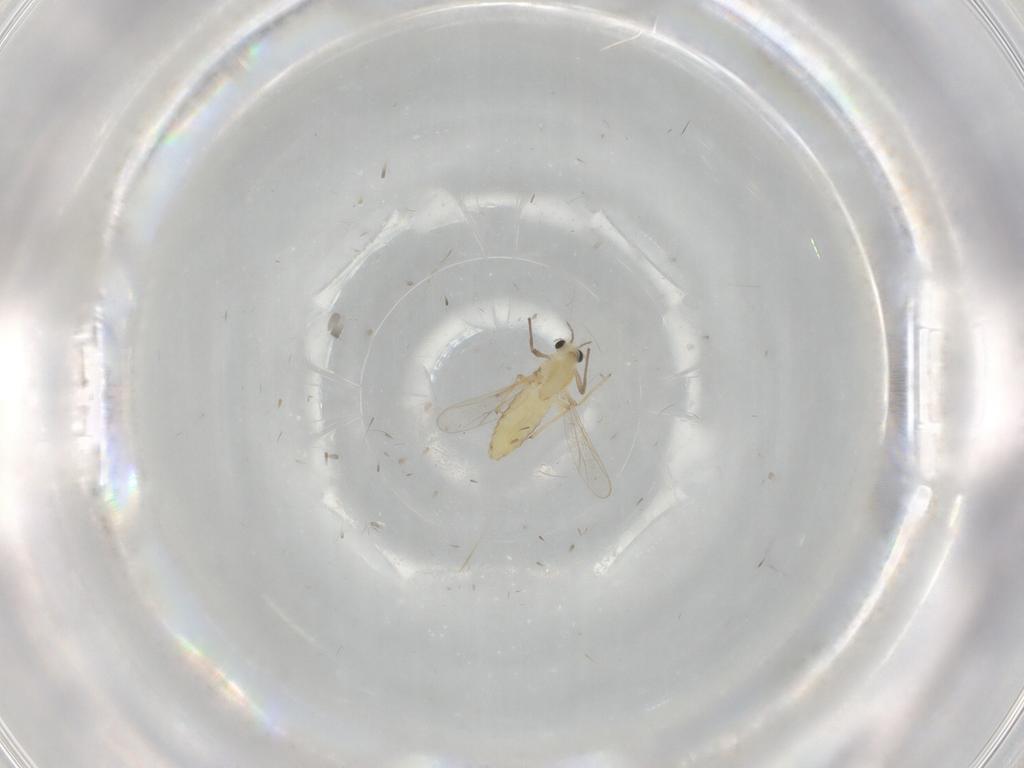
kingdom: Animalia
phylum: Arthropoda
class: Insecta
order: Diptera
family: Chironomidae
